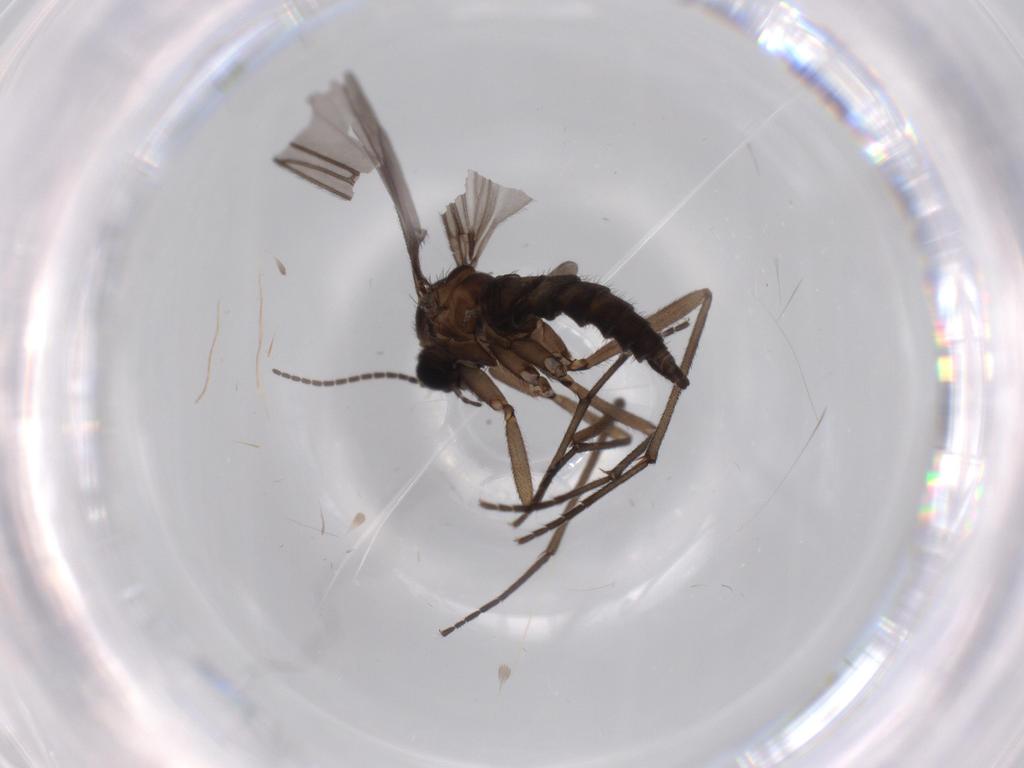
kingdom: Animalia
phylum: Arthropoda
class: Insecta
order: Diptera
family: Sciaridae
